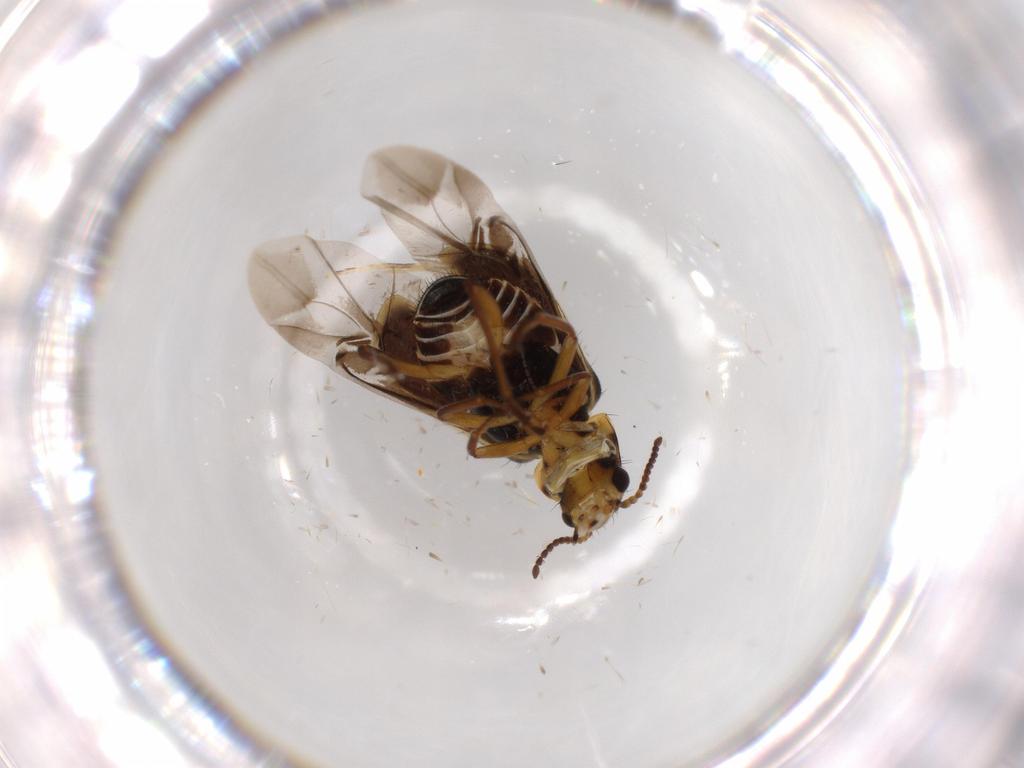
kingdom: Animalia
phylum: Arthropoda
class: Insecta
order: Coleoptera
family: Melyridae
